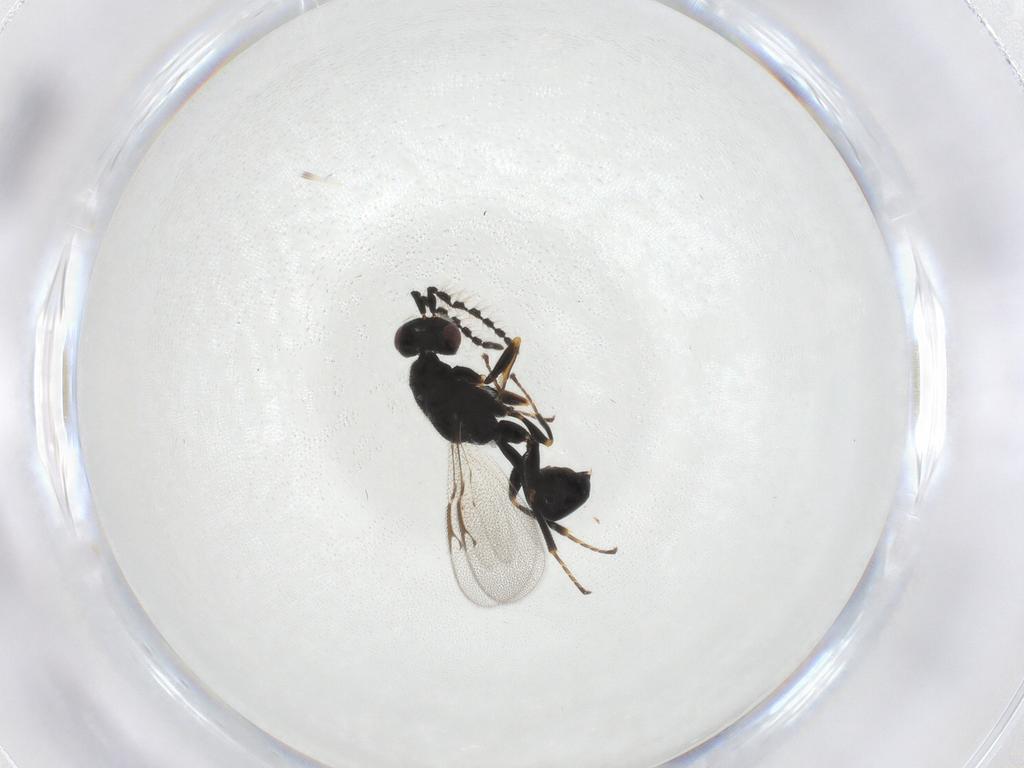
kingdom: Animalia
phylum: Arthropoda
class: Insecta
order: Hymenoptera
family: Eurytomidae
